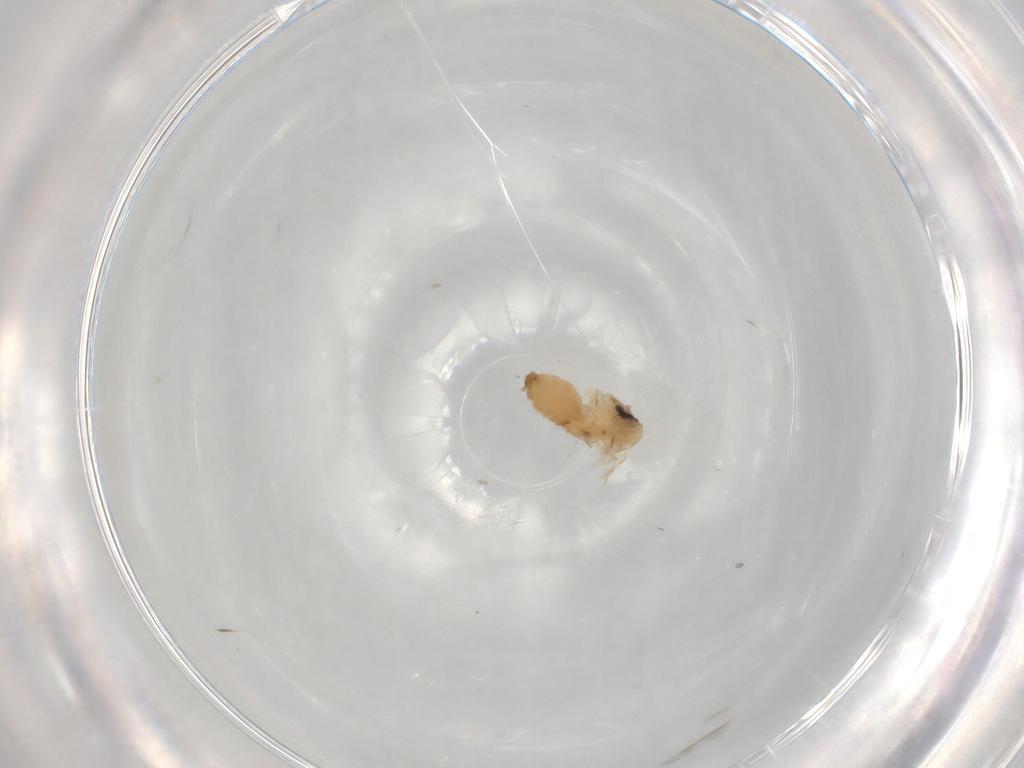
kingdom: Animalia
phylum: Arthropoda
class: Insecta
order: Diptera
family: Psychodidae
